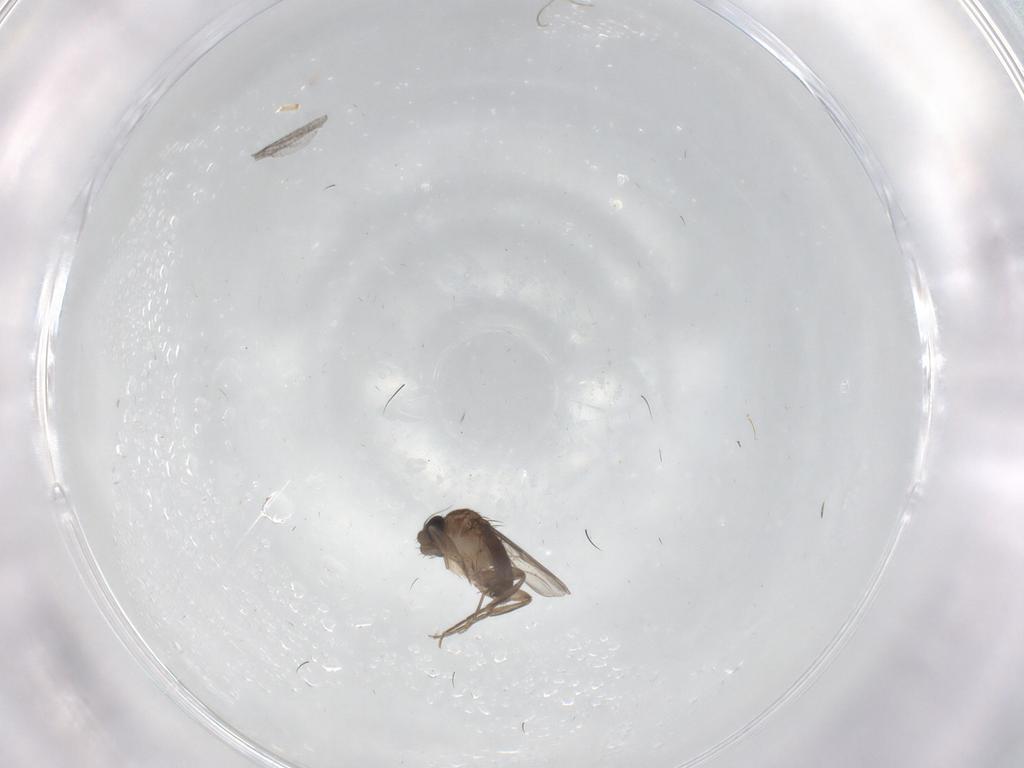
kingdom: Animalia
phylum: Arthropoda
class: Insecta
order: Diptera
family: Phoridae
